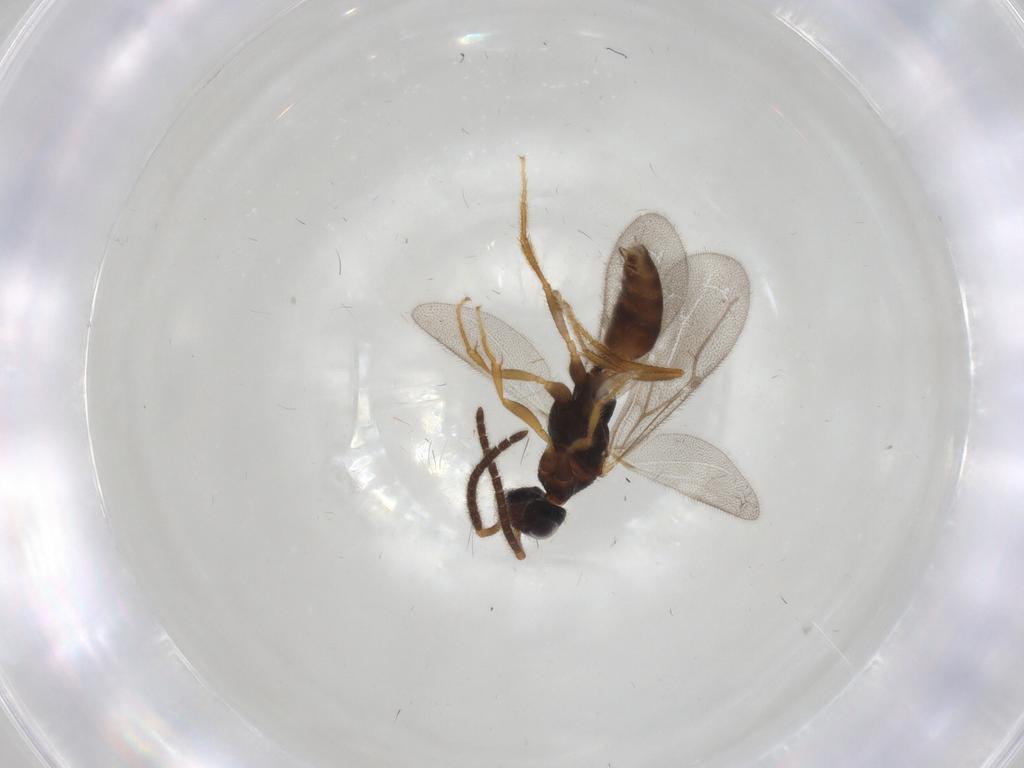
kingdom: Animalia
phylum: Arthropoda
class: Insecta
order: Hymenoptera
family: Bethylidae
